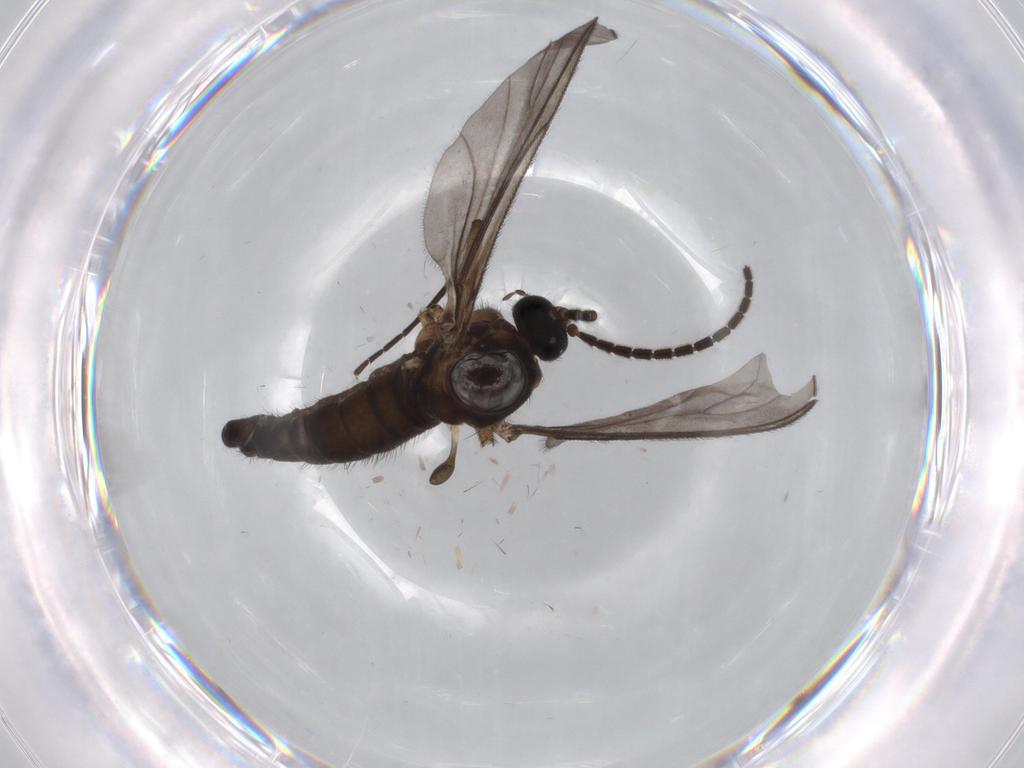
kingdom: Animalia
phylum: Arthropoda
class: Insecta
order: Diptera
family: Sciaridae
